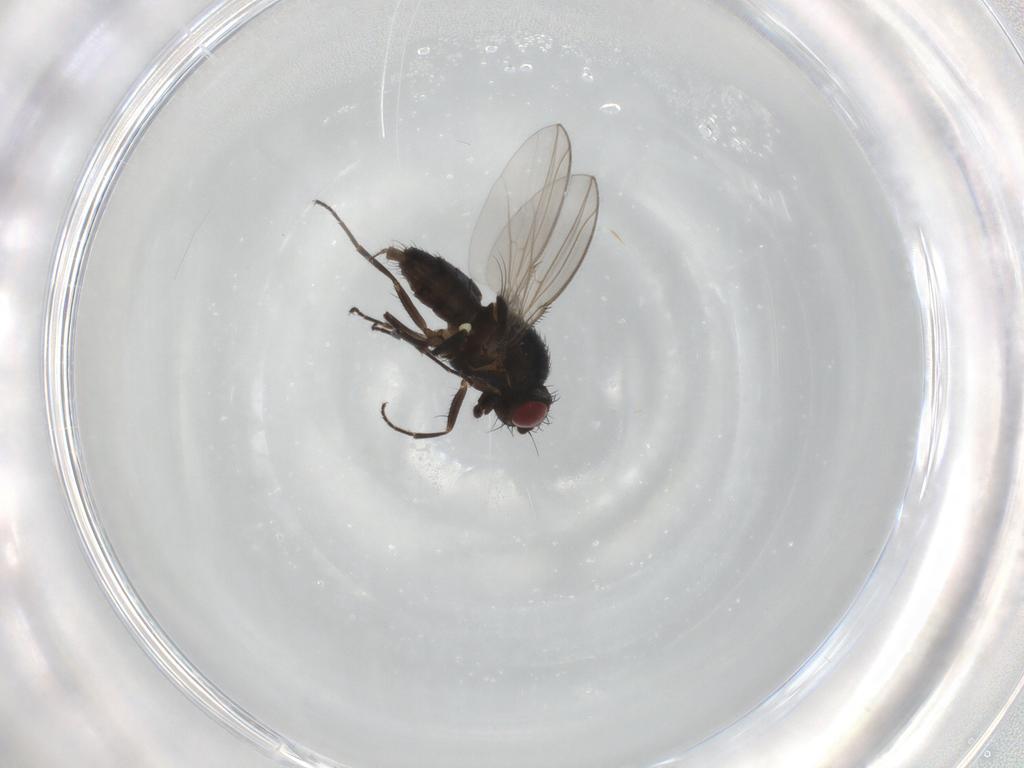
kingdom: Animalia
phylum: Arthropoda
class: Insecta
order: Diptera
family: Carnidae
